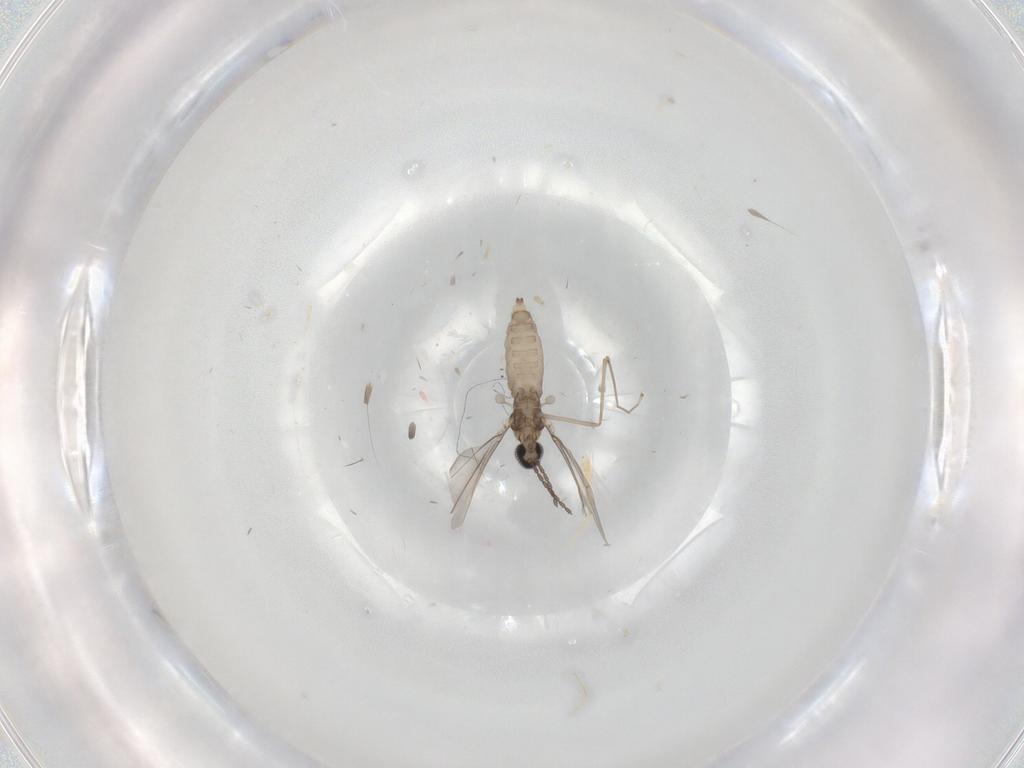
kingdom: Animalia
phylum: Arthropoda
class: Insecta
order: Diptera
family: Psychodidae
